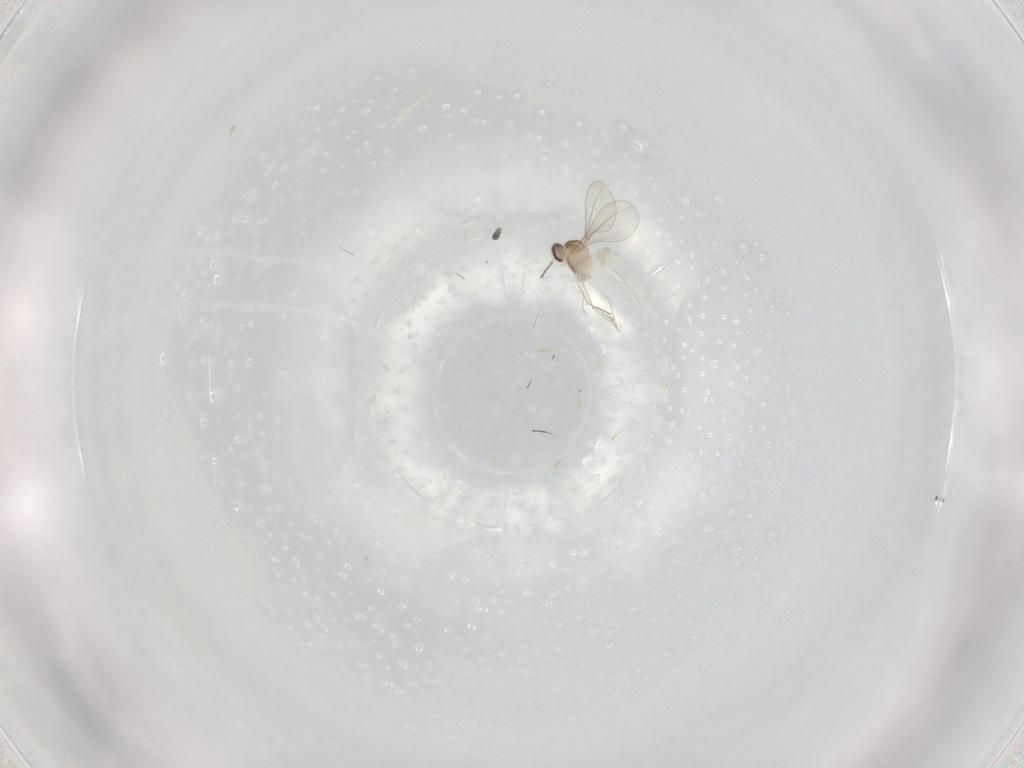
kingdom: Animalia
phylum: Arthropoda
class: Insecta
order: Diptera
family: Cecidomyiidae
